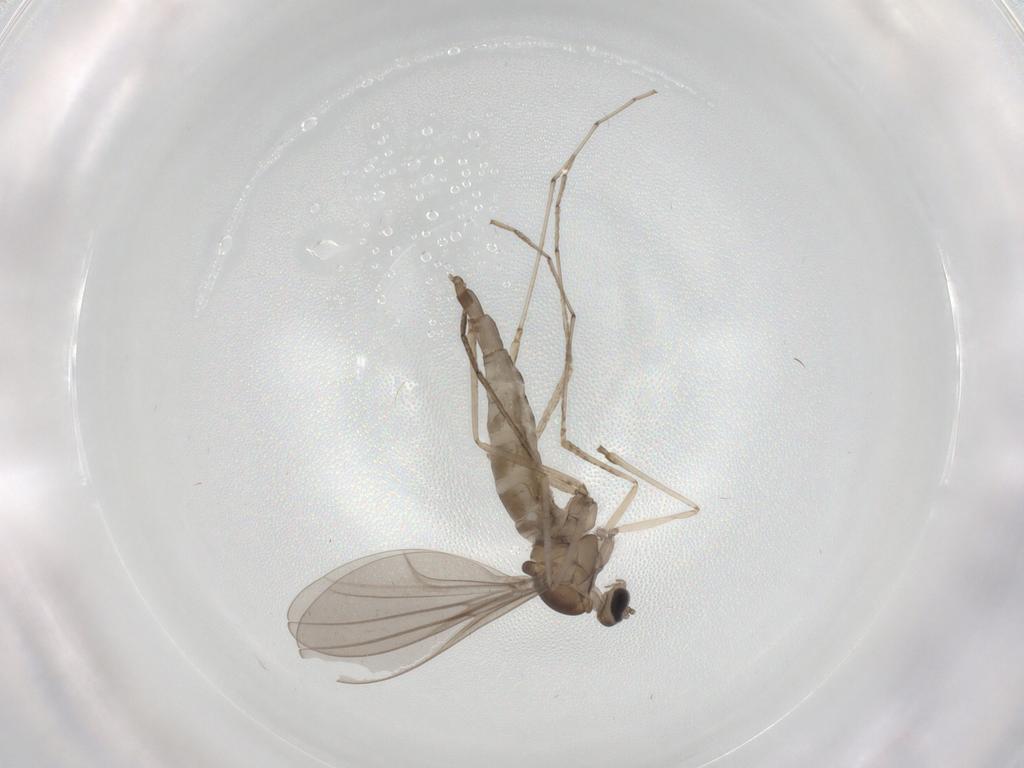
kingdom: Animalia
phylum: Arthropoda
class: Insecta
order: Diptera
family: Cecidomyiidae
